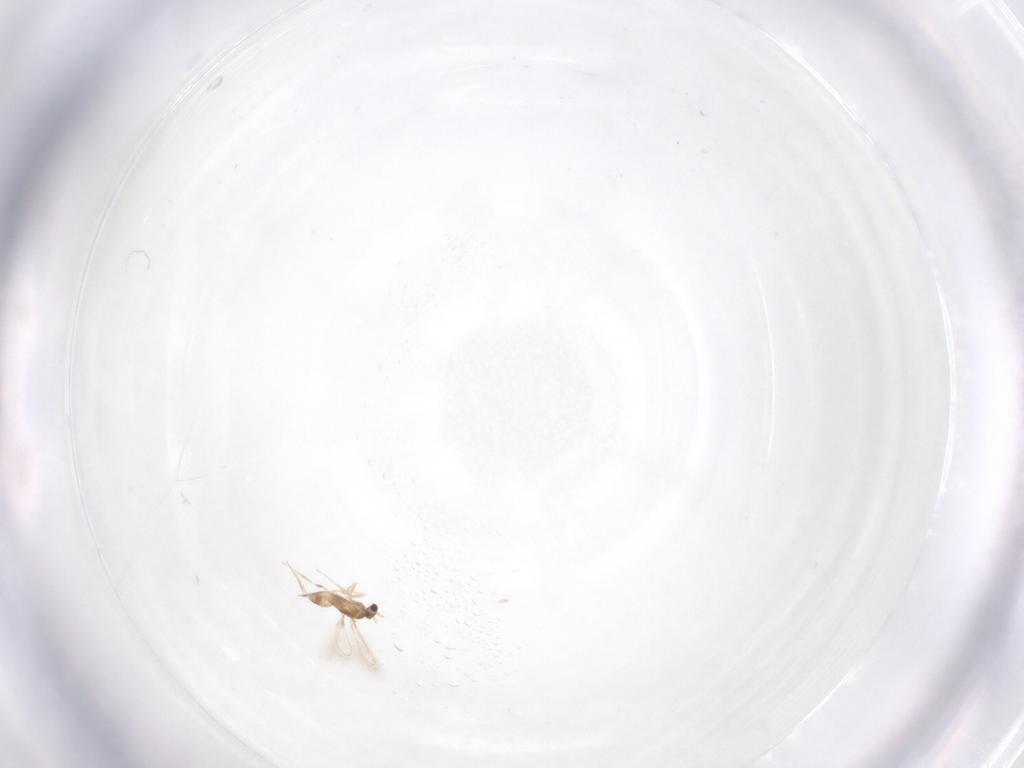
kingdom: Animalia
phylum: Arthropoda
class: Insecta
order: Hymenoptera
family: Mymaridae
